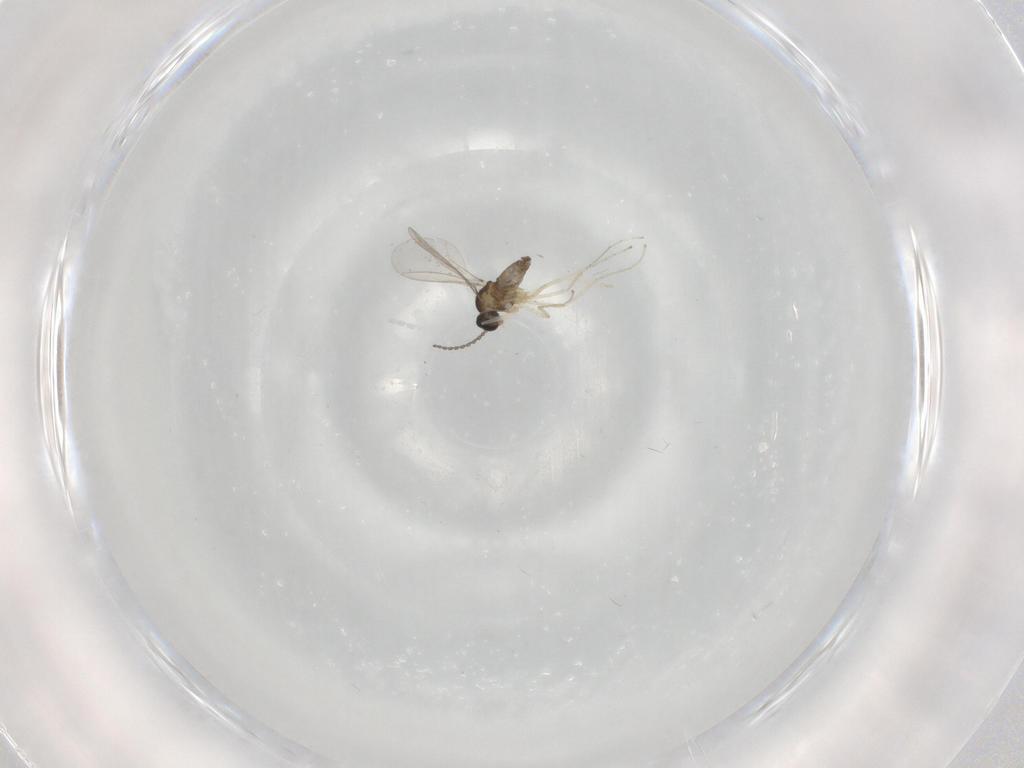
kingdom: Animalia
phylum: Arthropoda
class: Insecta
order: Diptera
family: Cecidomyiidae
